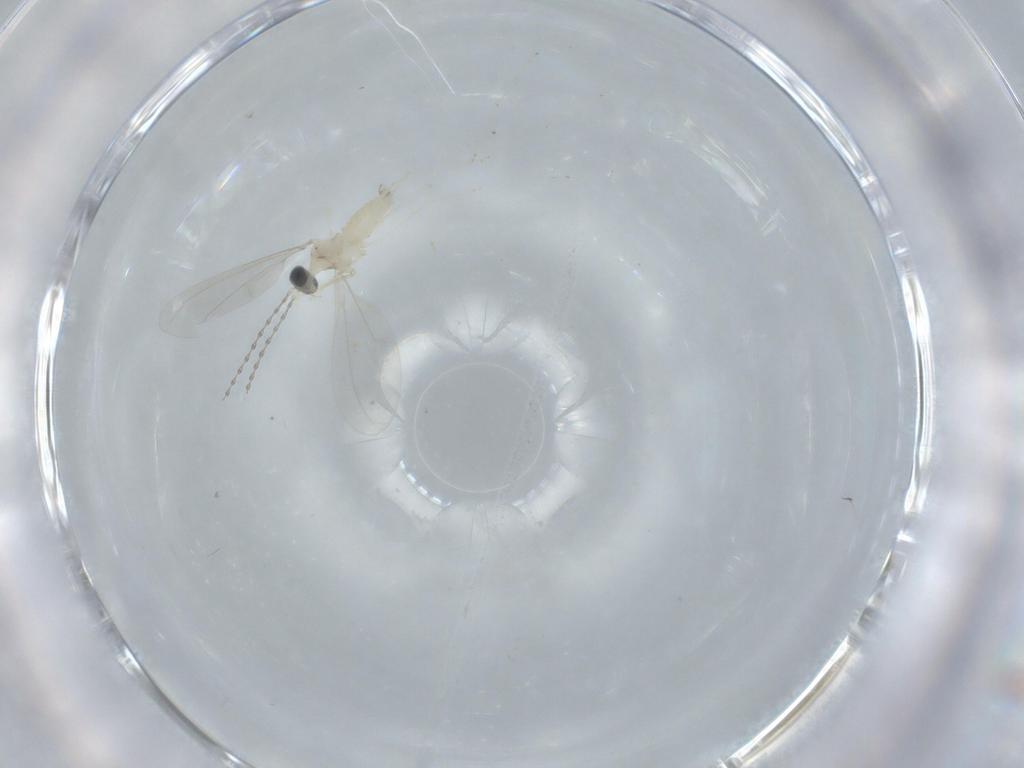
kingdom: Animalia
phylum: Arthropoda
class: Insecta
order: Diptera
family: Cecidomyiidae
